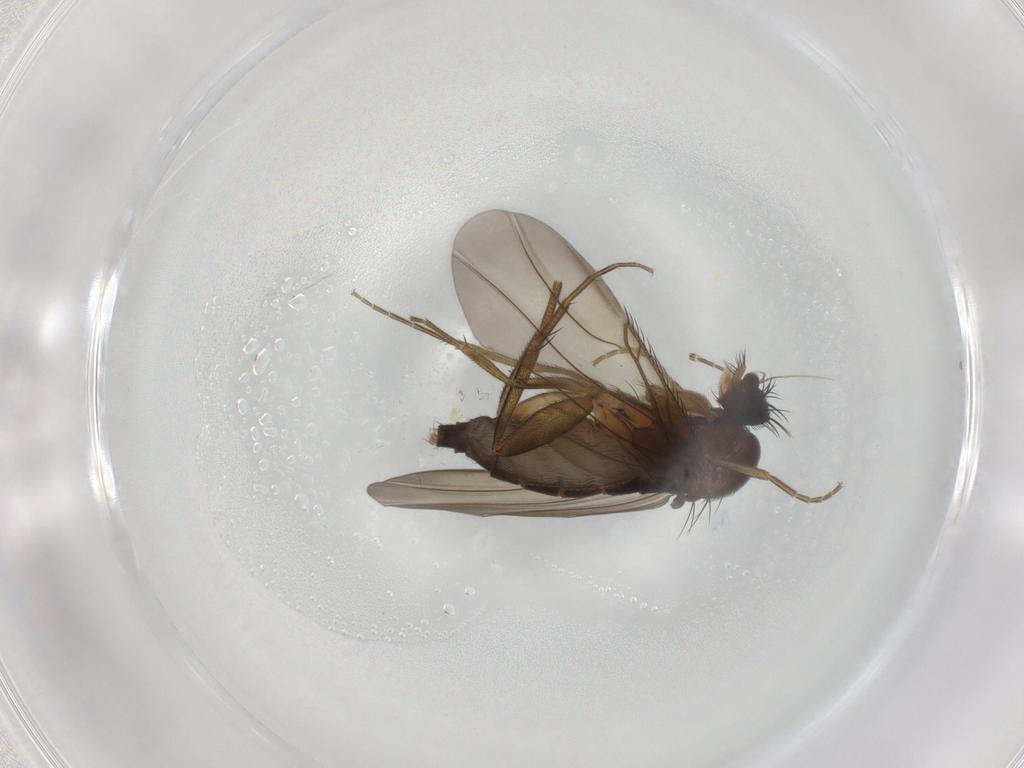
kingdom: Animalia
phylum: Arthropoda
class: Insecta
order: Diptera
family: Phoridae
